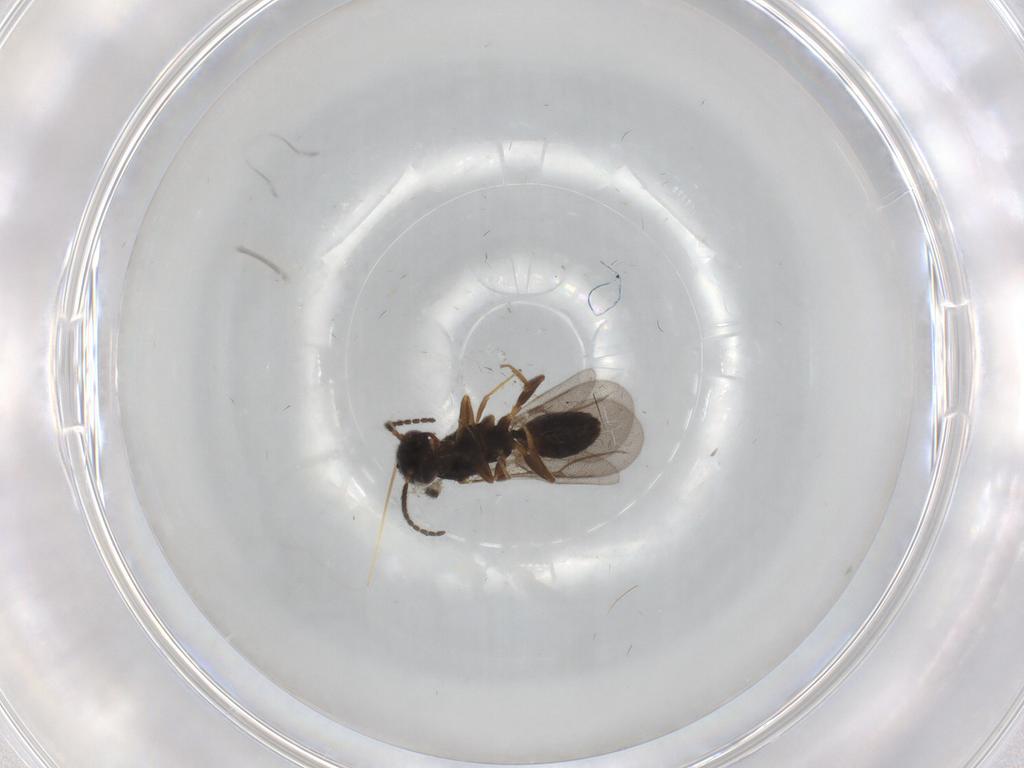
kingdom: Animalia
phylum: Arthropoda
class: Insecta
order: Hymenoptera
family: Bethylidae
